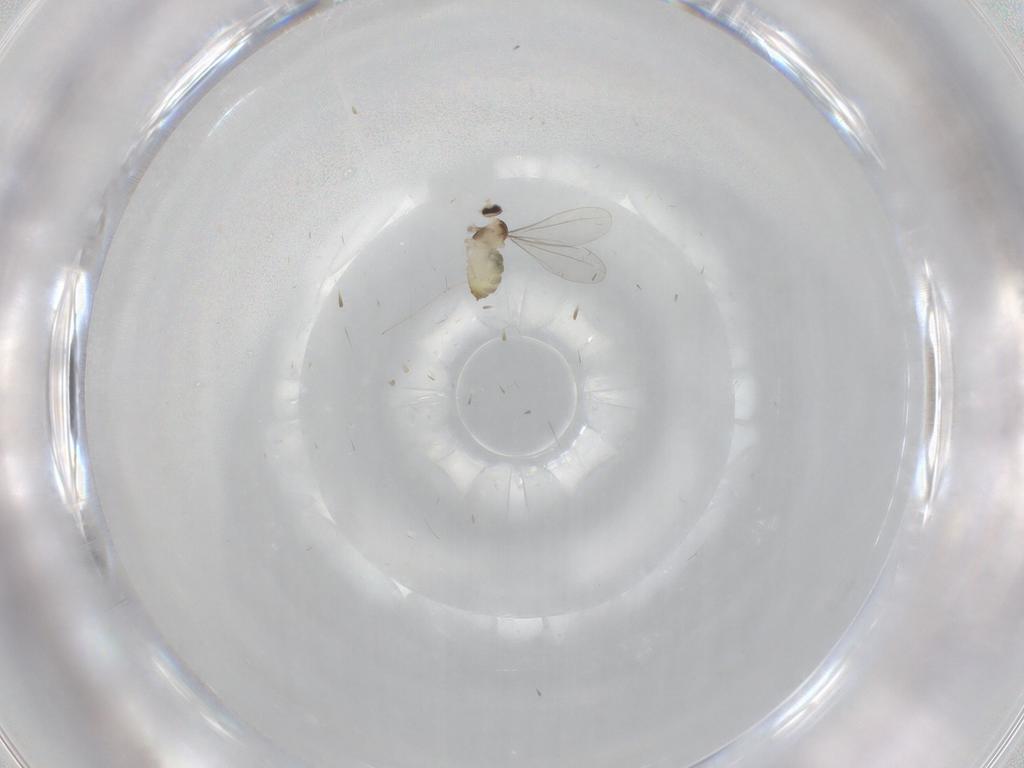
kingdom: Animalia
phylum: Arthropoda
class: Insecta
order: Diptera
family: Cecidomyiidae
